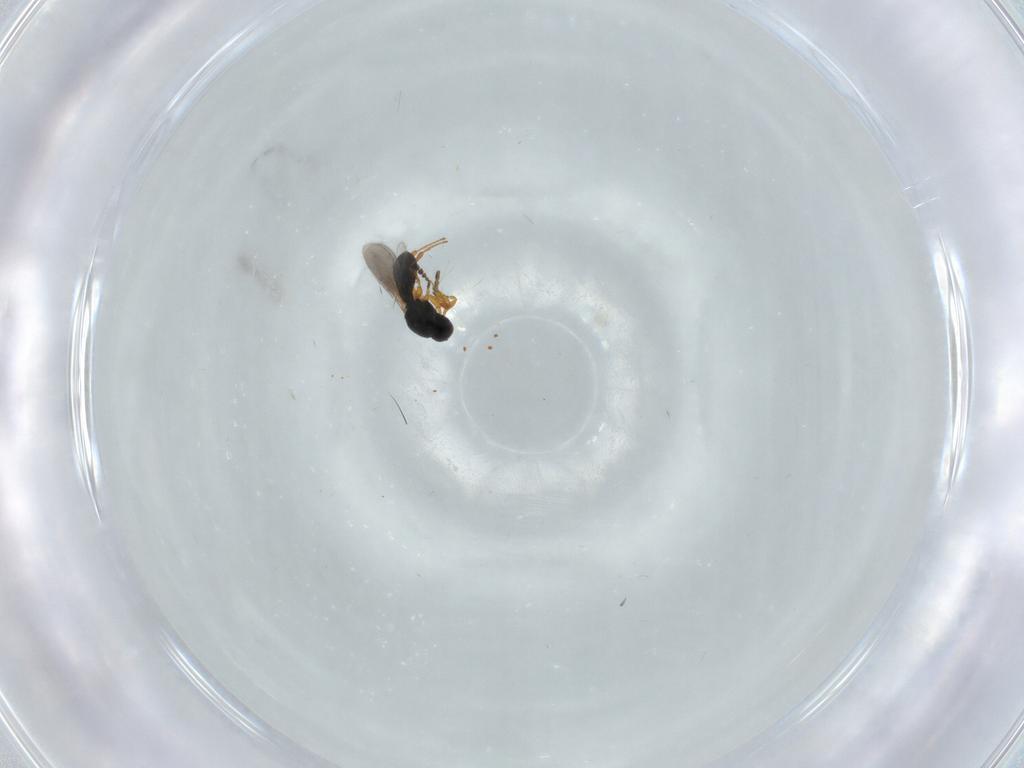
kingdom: Animalia
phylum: Arthropoda
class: Insecta
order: Hymenoptera
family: Platygastridae
